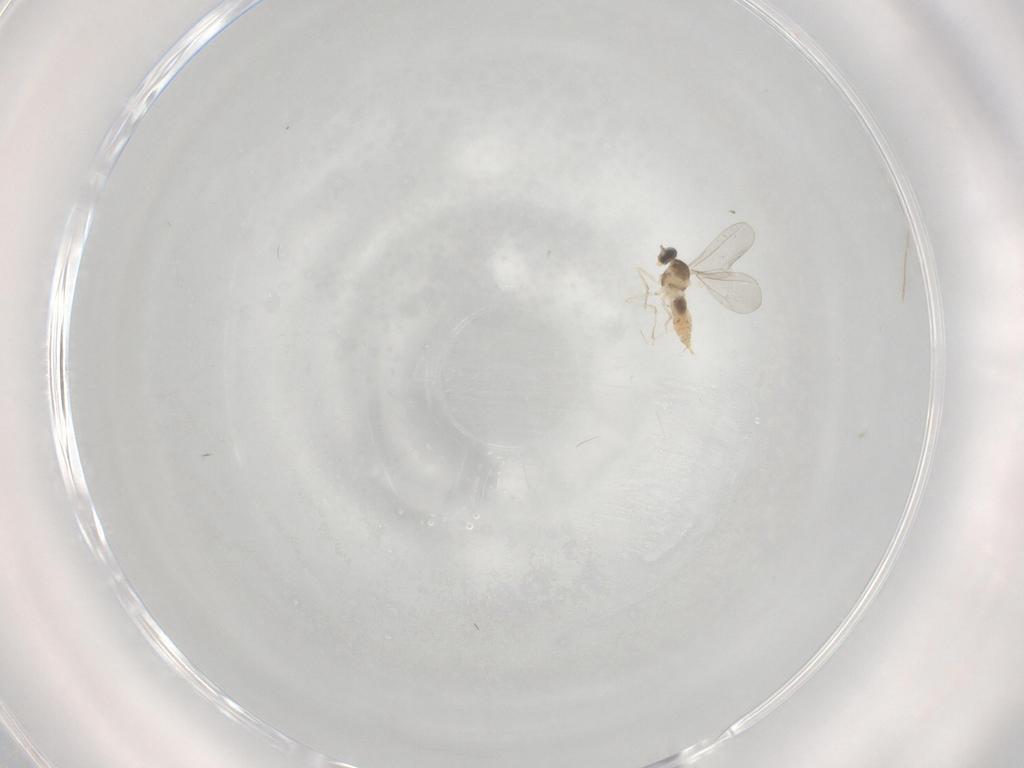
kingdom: Animalia
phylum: Arthropoda
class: Insecta
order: Diptera
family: Cecidomyiidae
